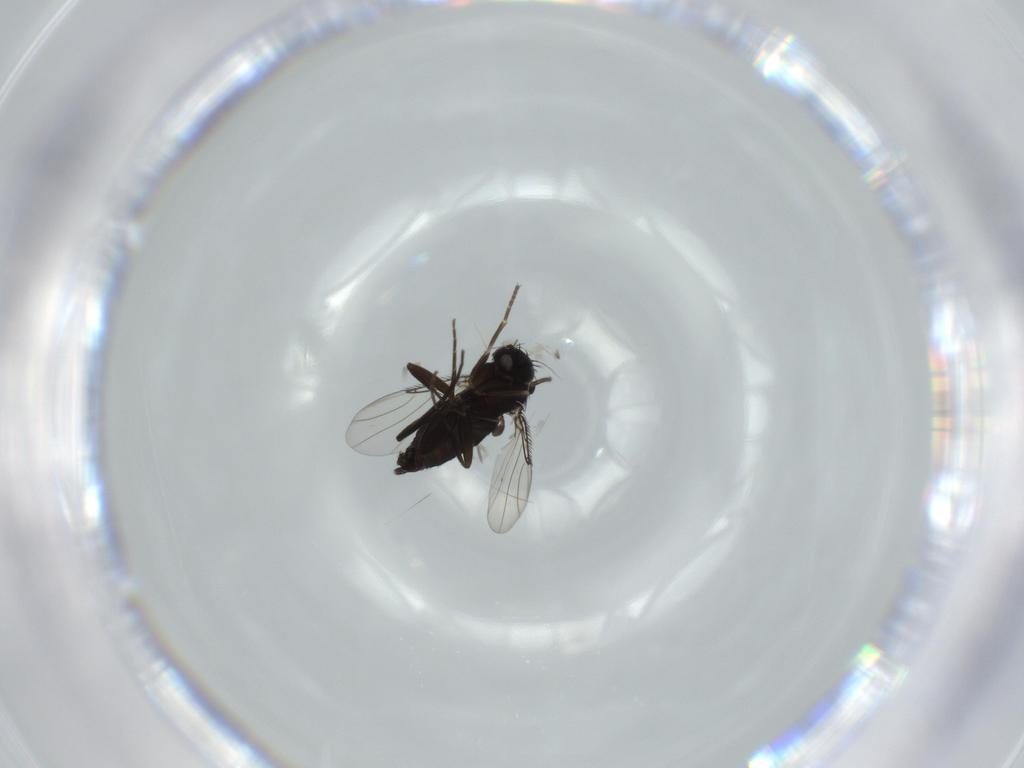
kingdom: Animalia
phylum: Arthropoda
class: Insecta
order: Diptera
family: Phoridae
